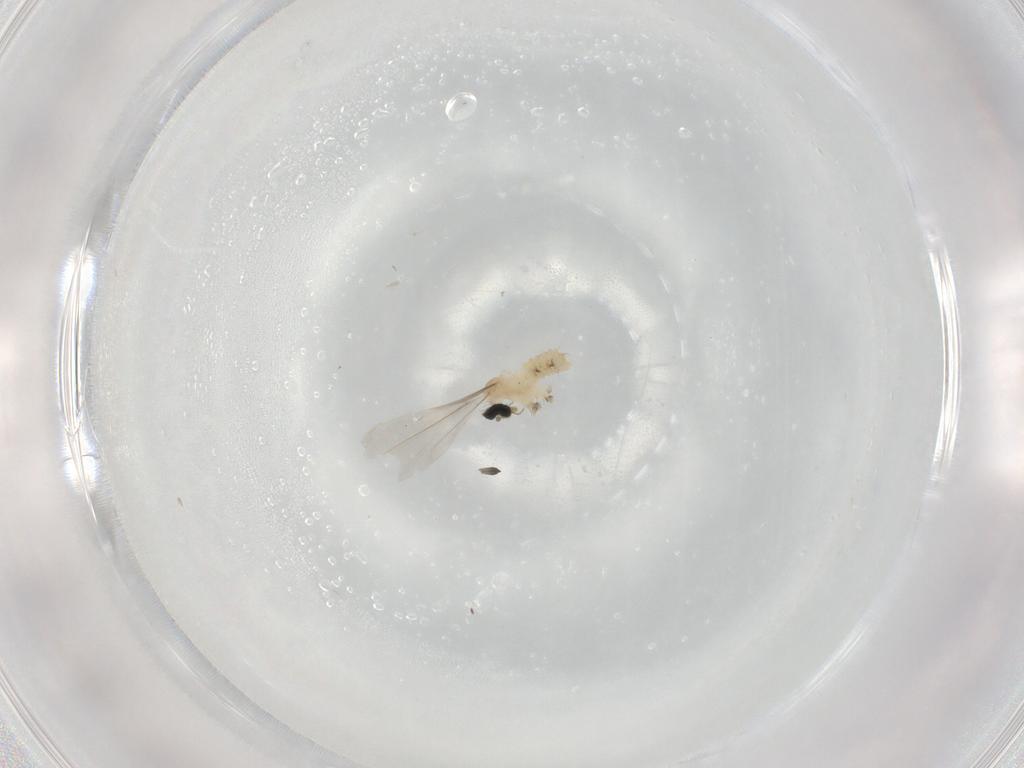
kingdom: Animalia
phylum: Arthropoda
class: Insecta
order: Diptera
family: Cecidomyiidae
